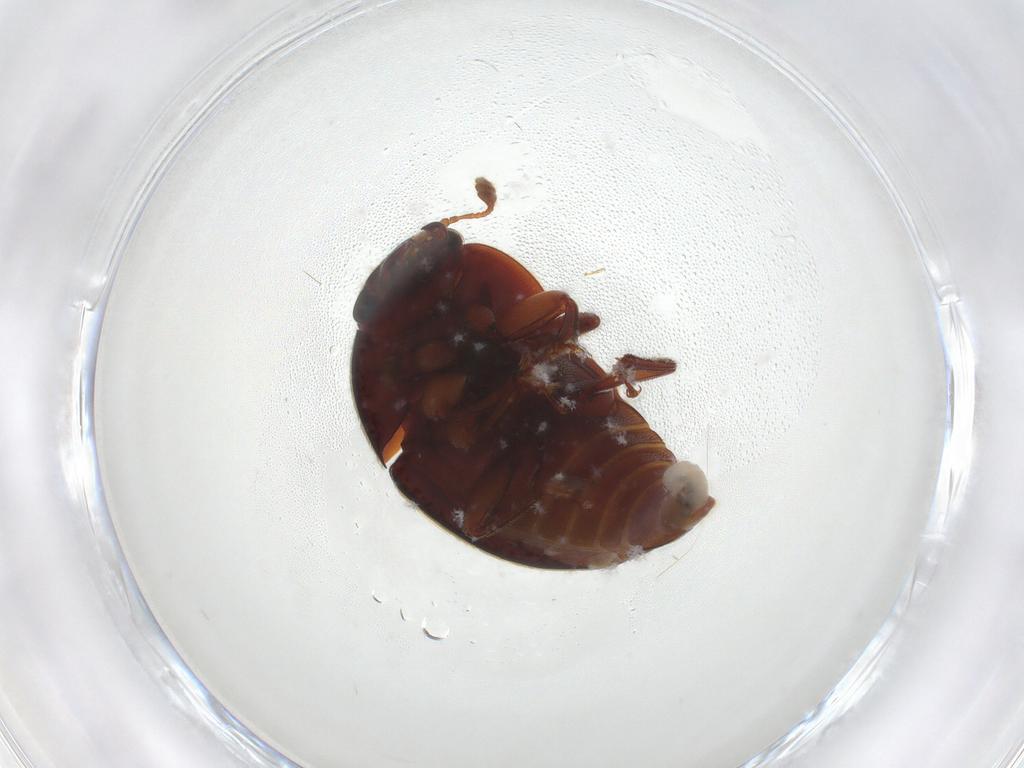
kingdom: Animalia
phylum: Arthropoda
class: Insecta
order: Coleoptera
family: Nitidulidae
